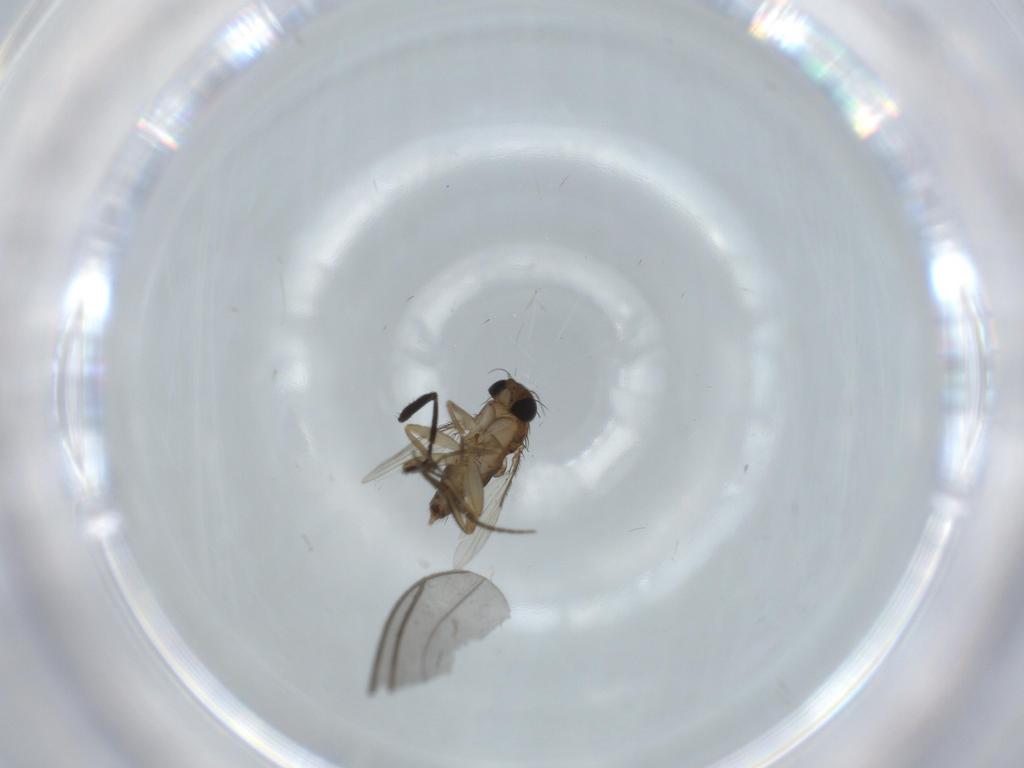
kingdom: Animalia
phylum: Arthropoda
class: Insecta
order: Diptera
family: Sciaridae
